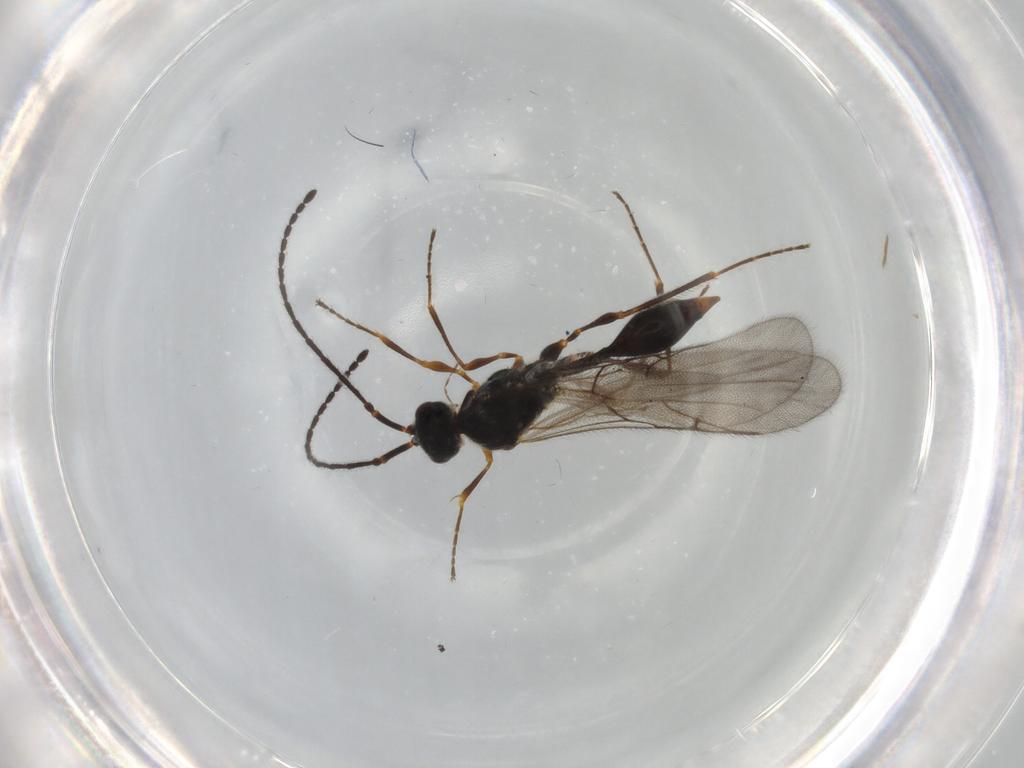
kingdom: Animalia
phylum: Arthropoda
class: Insecta
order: Hymenoptera
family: Diapriidae
